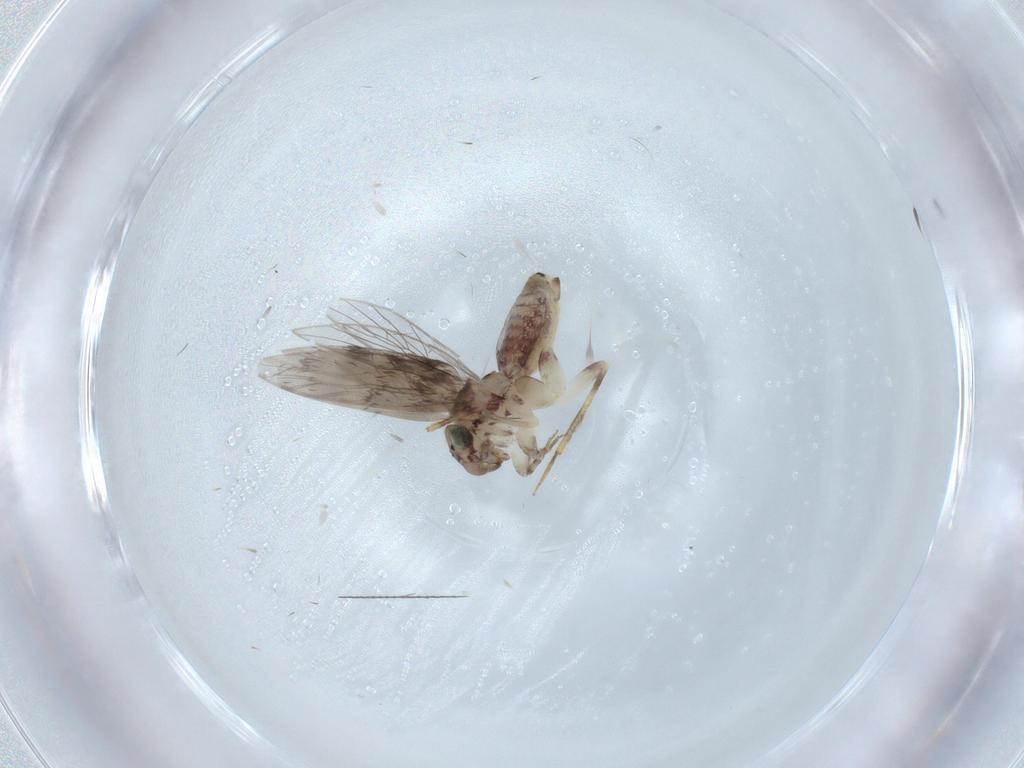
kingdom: Animalia
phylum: Arthropoda
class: Insecta
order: Psocodea
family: Lepidopsocidae
